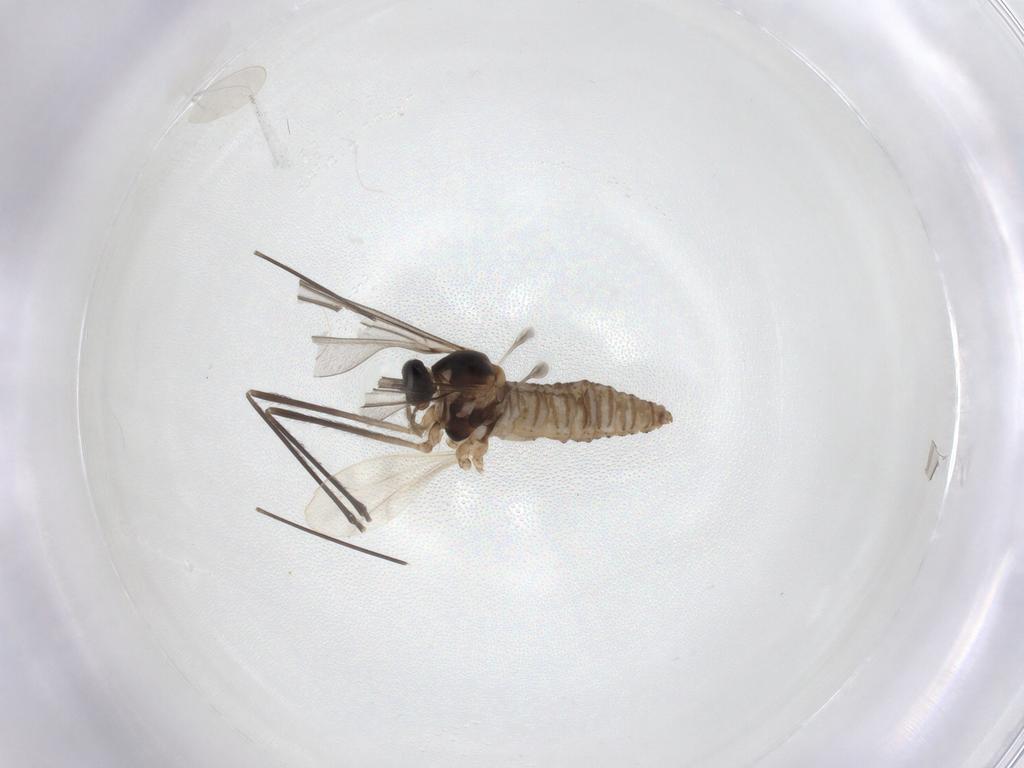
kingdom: Animalia
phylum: Arthropoda
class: Insecta
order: Diptera
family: Cecidomyiidae
